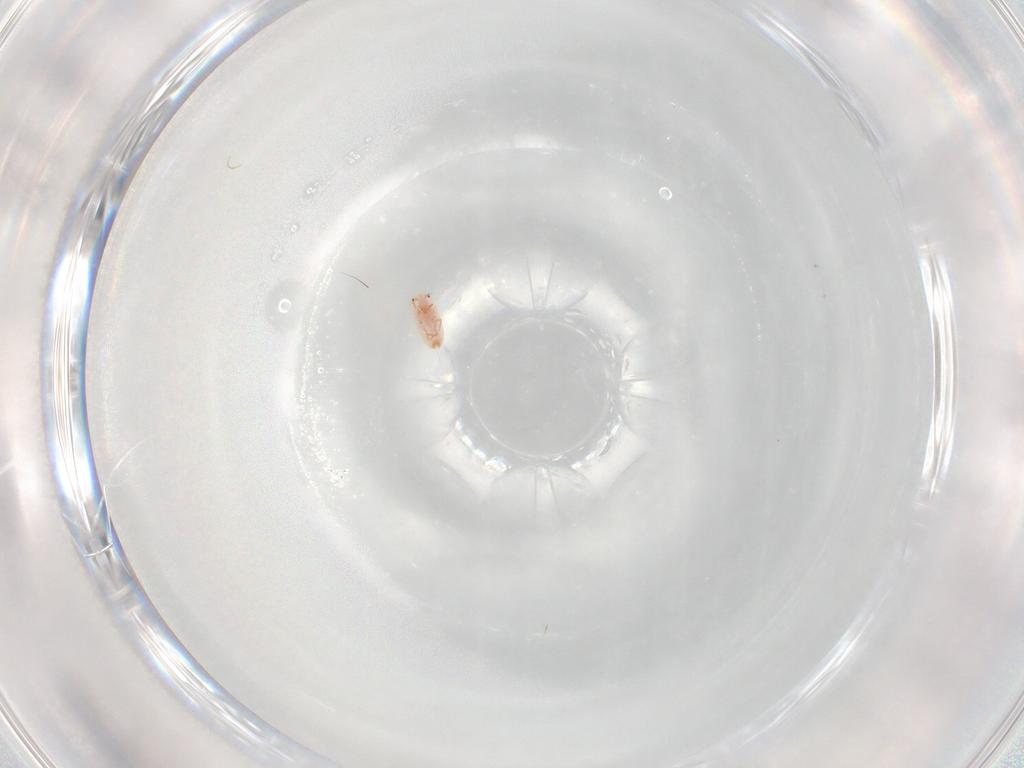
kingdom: Animalia
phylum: Arthropoda
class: Insecta
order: Hemiptera
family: Aleyrodidae
